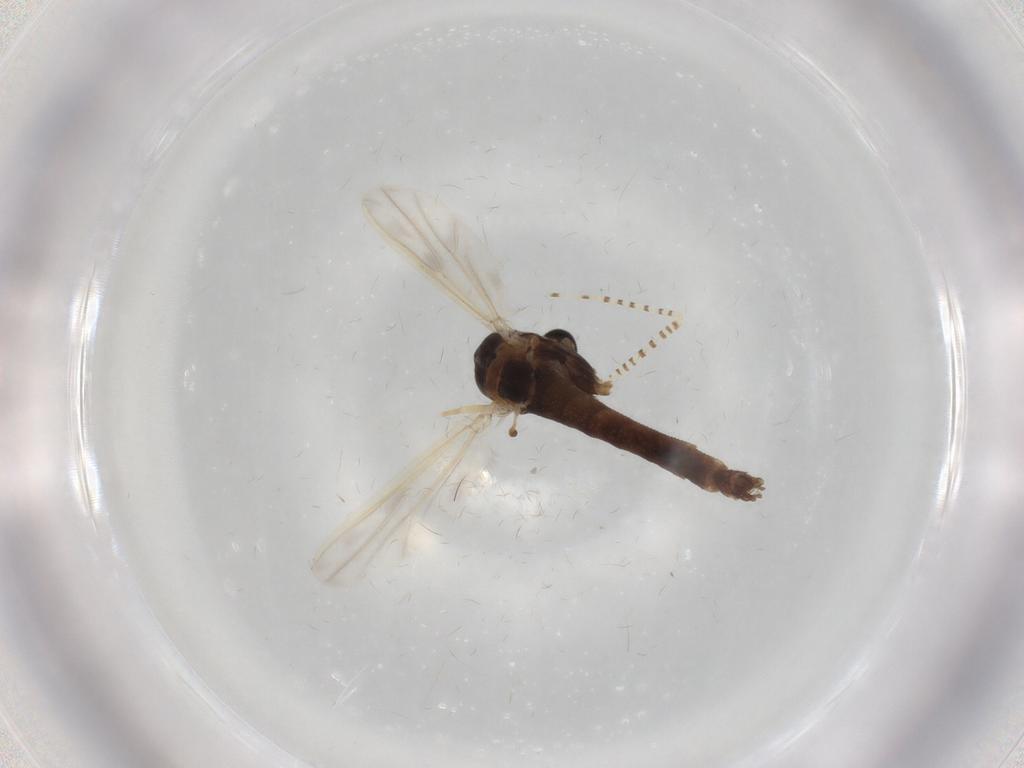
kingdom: Animalia
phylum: Arthropoda
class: Insecta
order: Diptera
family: Chironomidae
